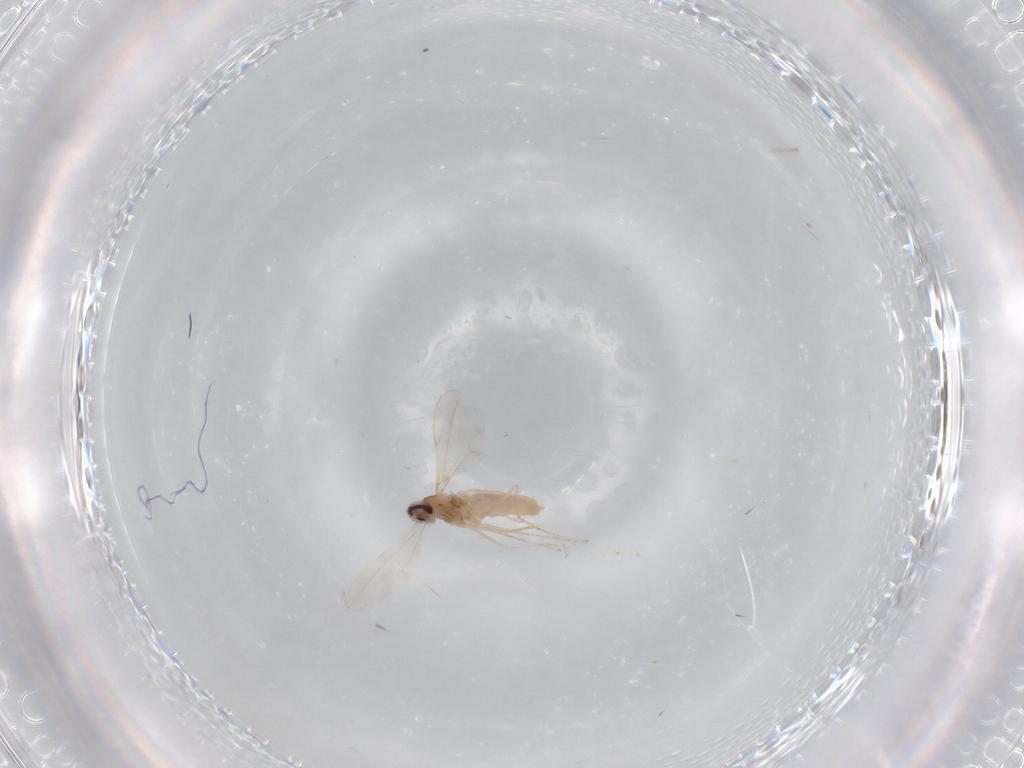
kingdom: Animalia
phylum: Arthropoda
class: Insecta
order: Diptera
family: Cecidomyiidae
